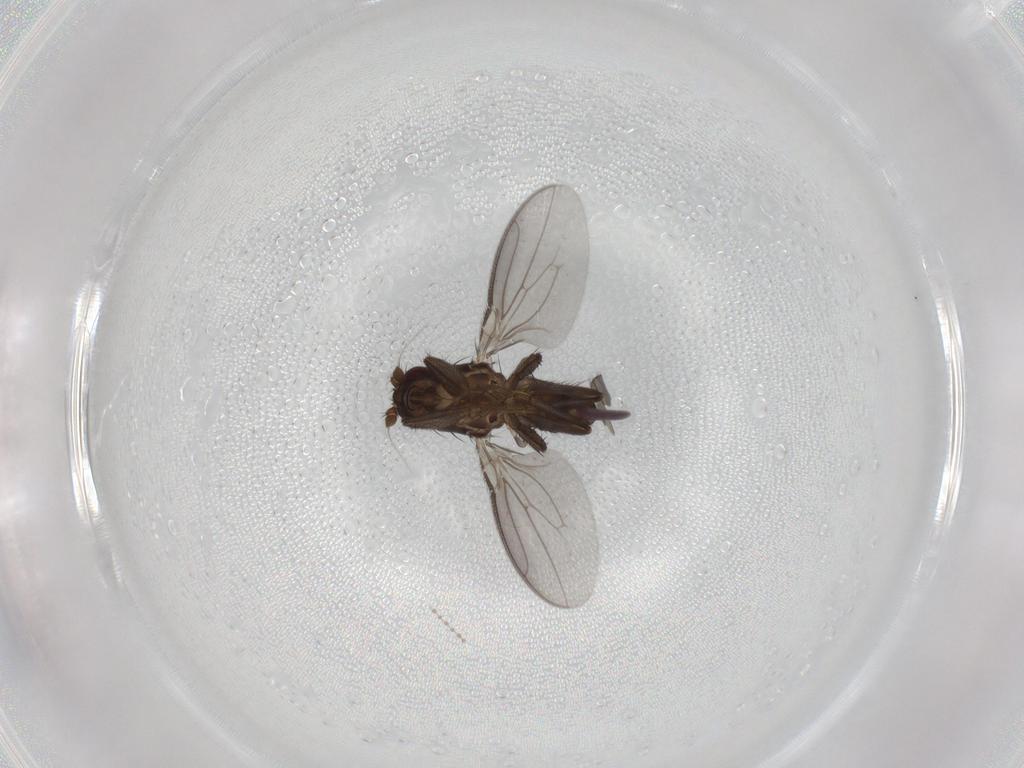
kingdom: Animalia
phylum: Arthropoda
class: Insecta
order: Diptera
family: Sphaeroceridae
